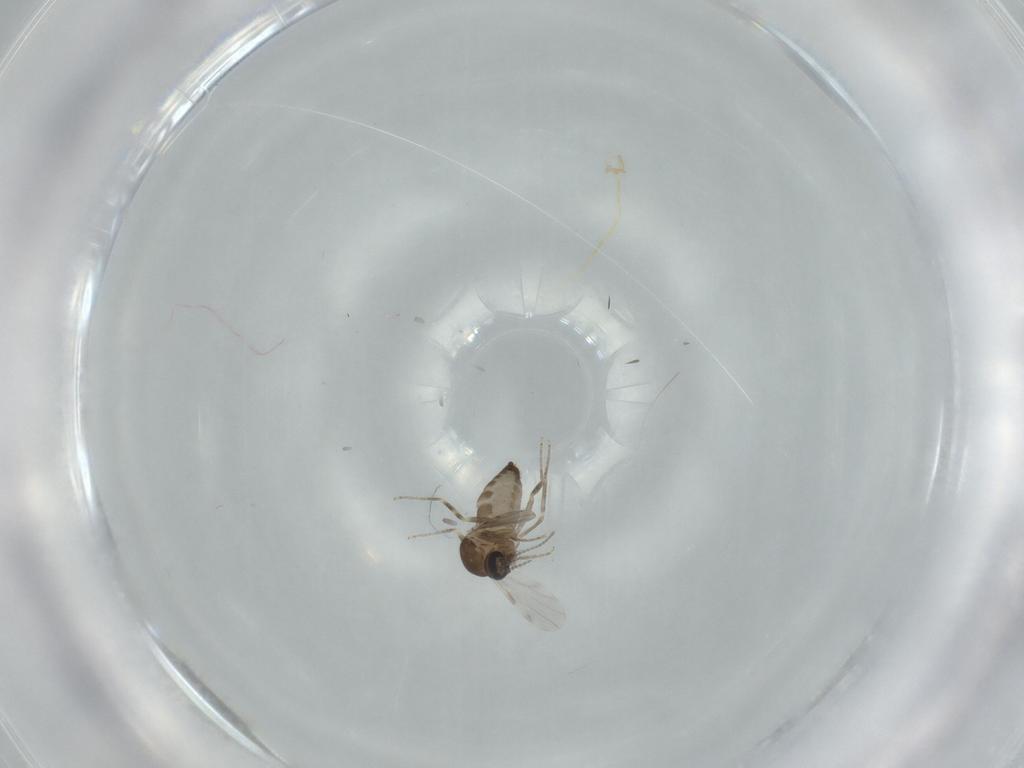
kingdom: Animalia
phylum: Arthropoda
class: Insecta
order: Diptera
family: Ceratopogonidae
